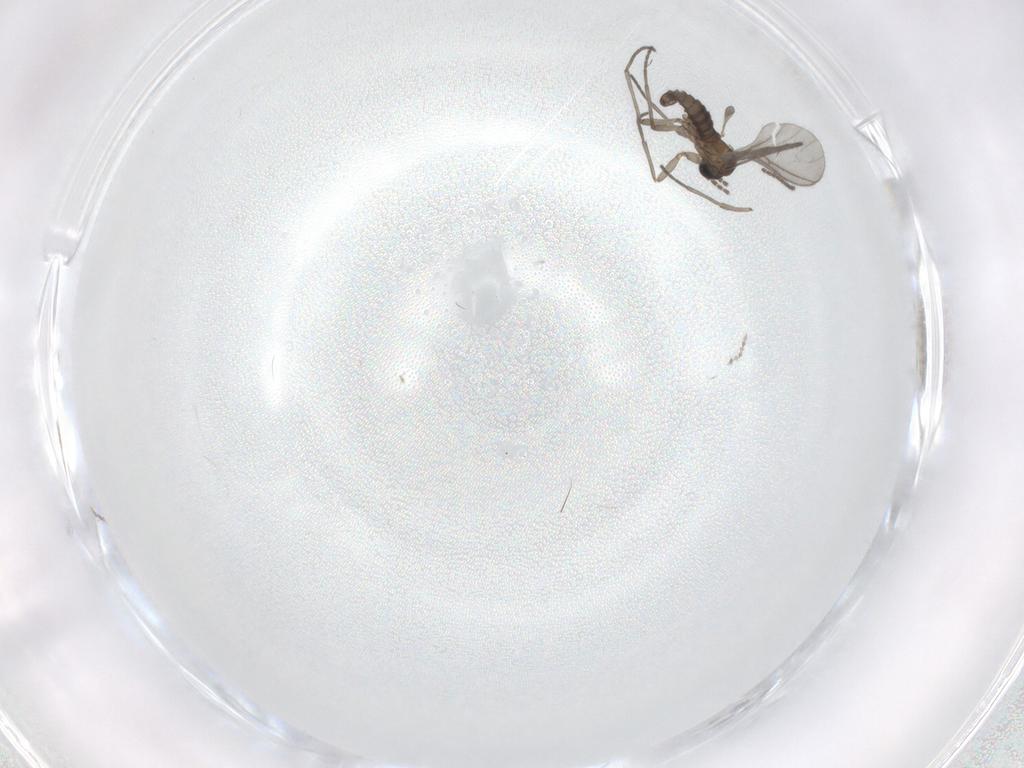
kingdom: Animalia
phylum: Arthropoda
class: Insecta
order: Diptera
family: Sciaridae
